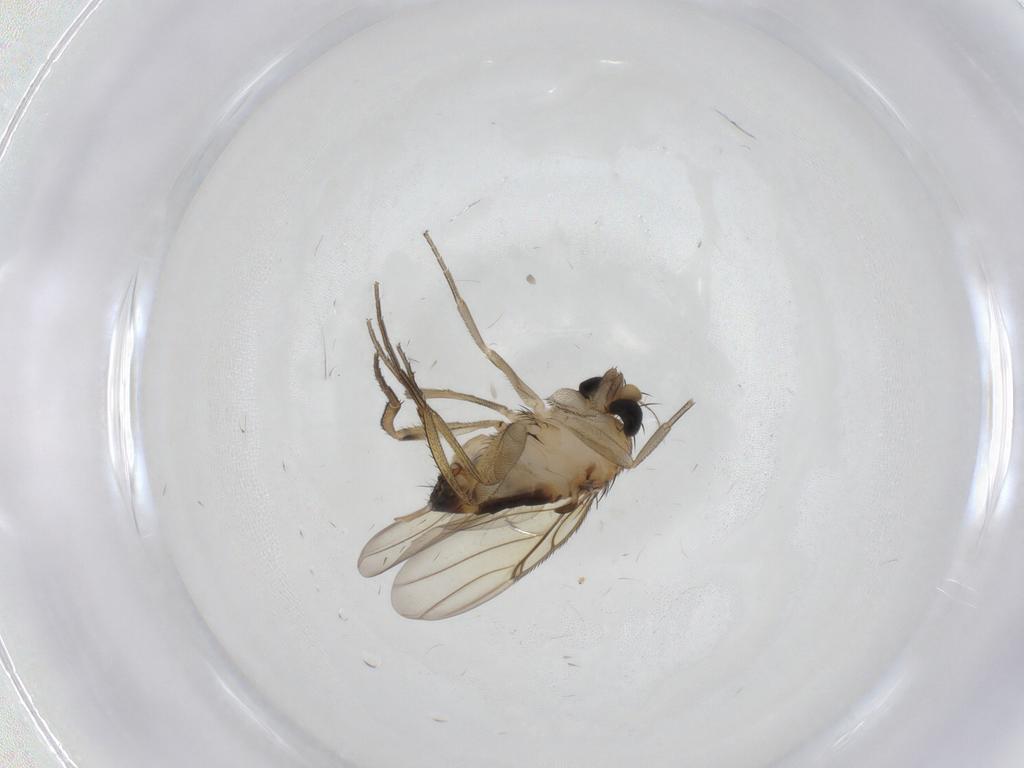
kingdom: Animalia
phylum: Arthropoda
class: Insecta
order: Diptera
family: Phoridae
